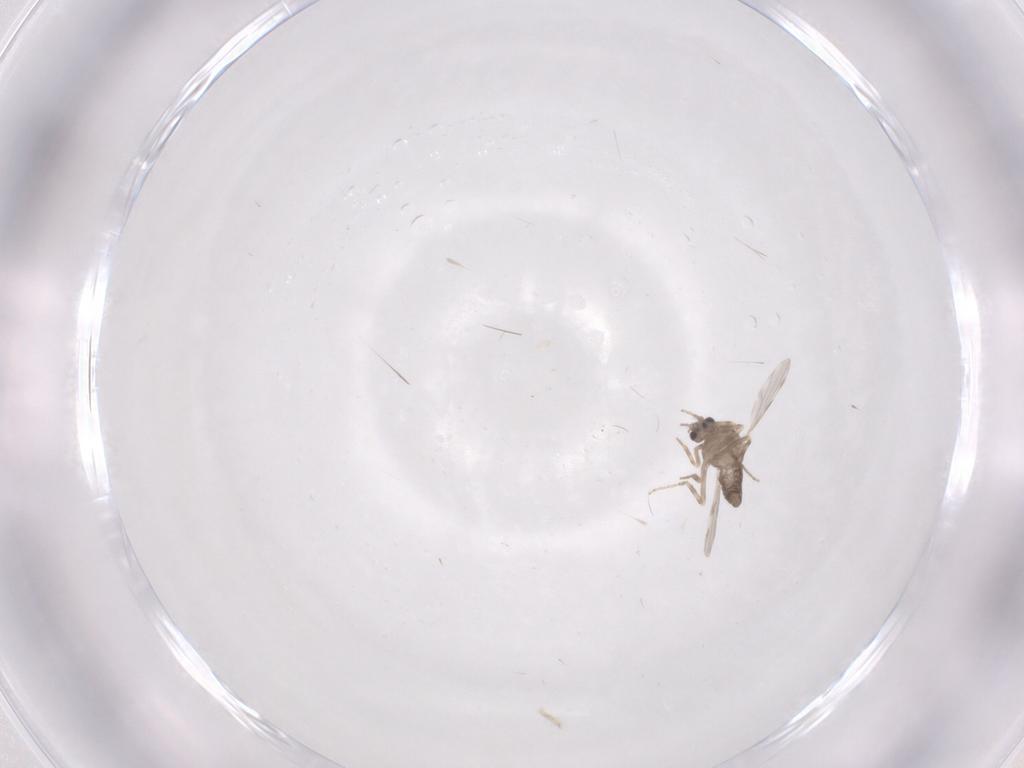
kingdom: Animalia
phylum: Arthropoda
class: Insecta
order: Diptera
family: Ceratopogonidae
